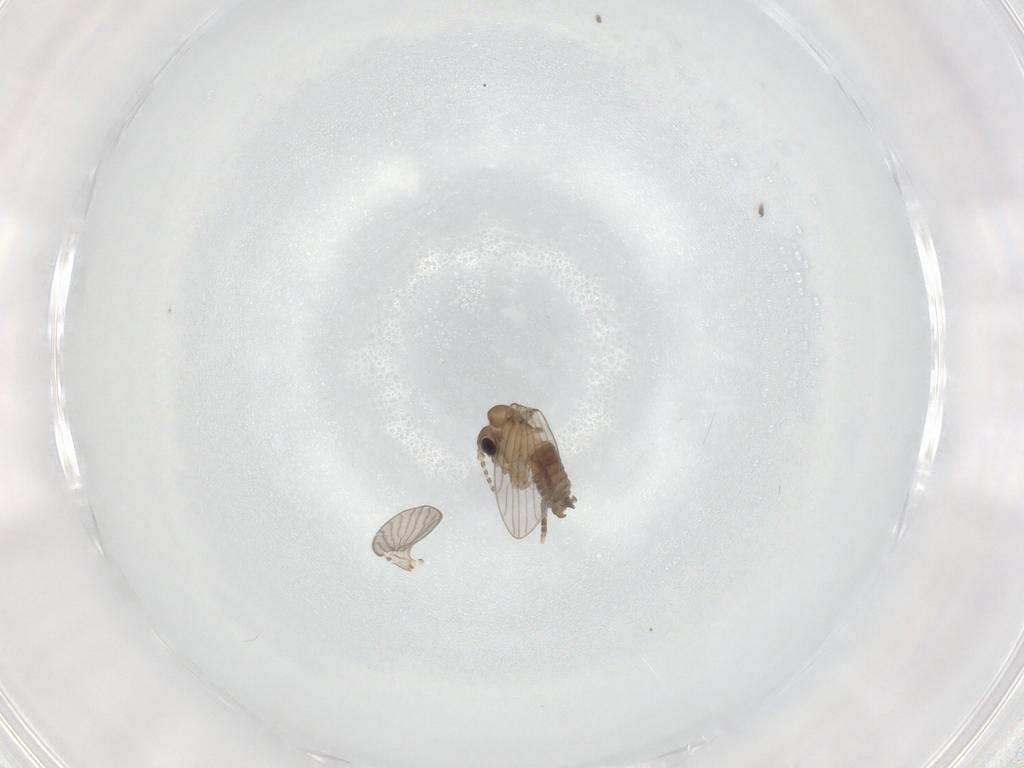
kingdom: Animalia
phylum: Arthropoda
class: Insecta
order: Diptera
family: Psychodidae
